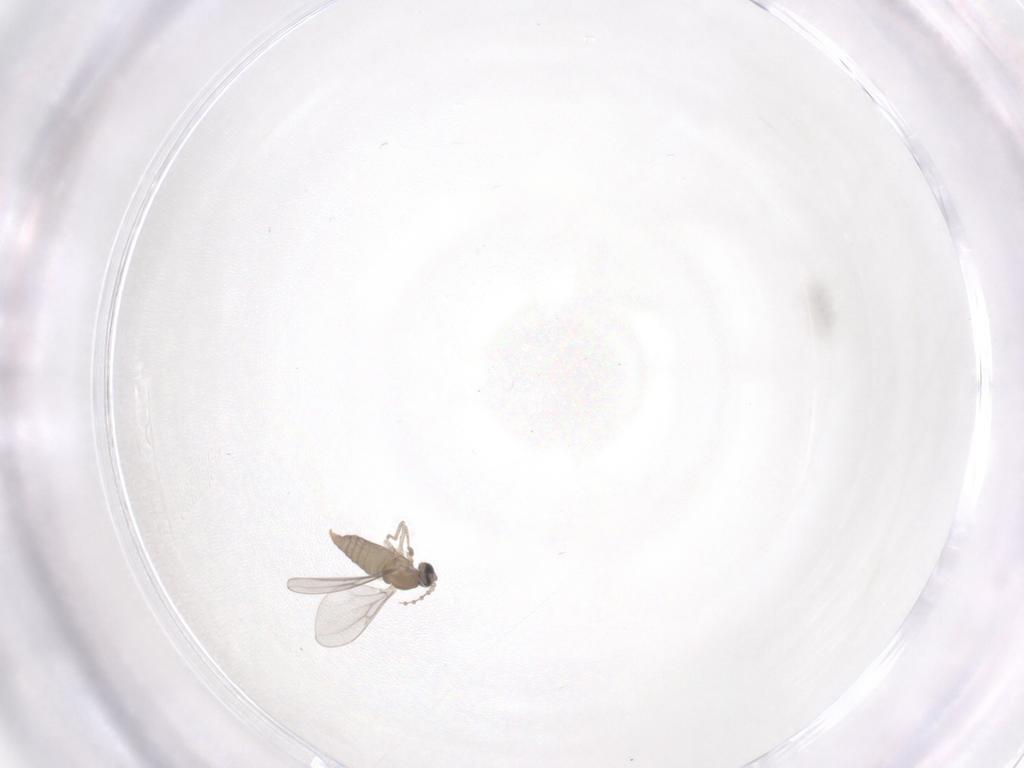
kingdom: Animalia
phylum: Arthropoda
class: Insecta
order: Diptera
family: Cecidomyiidae
